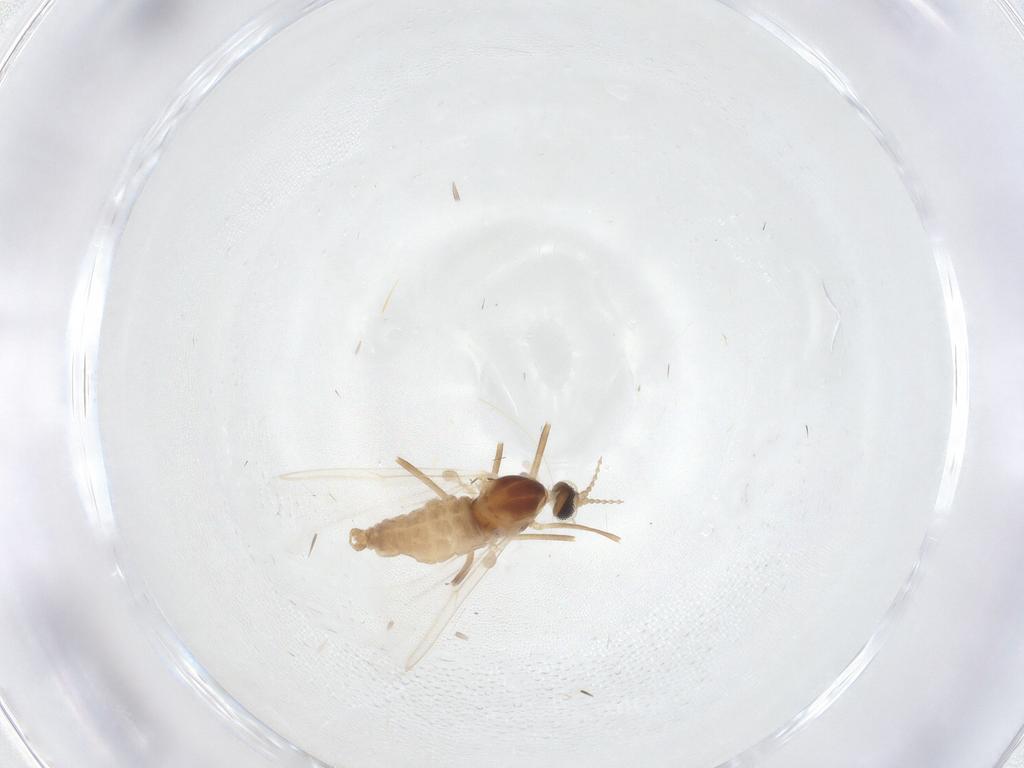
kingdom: Animalia
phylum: Arthropoda
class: Insecta
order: Diptera
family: Cecidomyiidae
